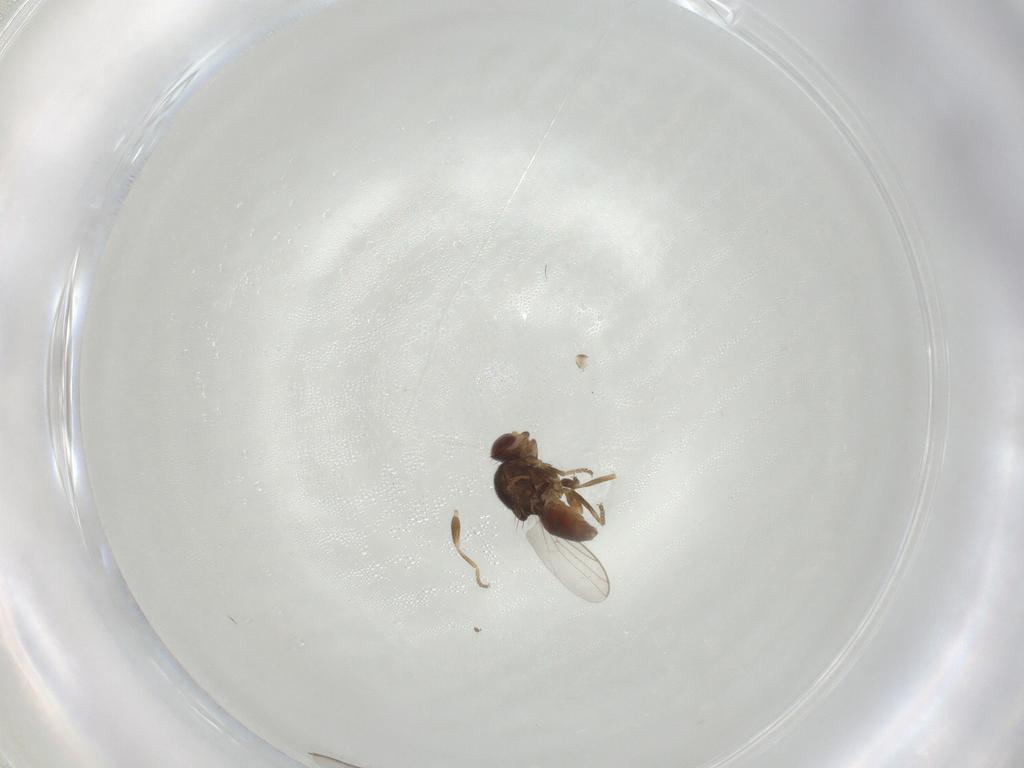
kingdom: Animalia
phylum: Arthropoda
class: Insecta
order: Diptera
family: Chloropidae
